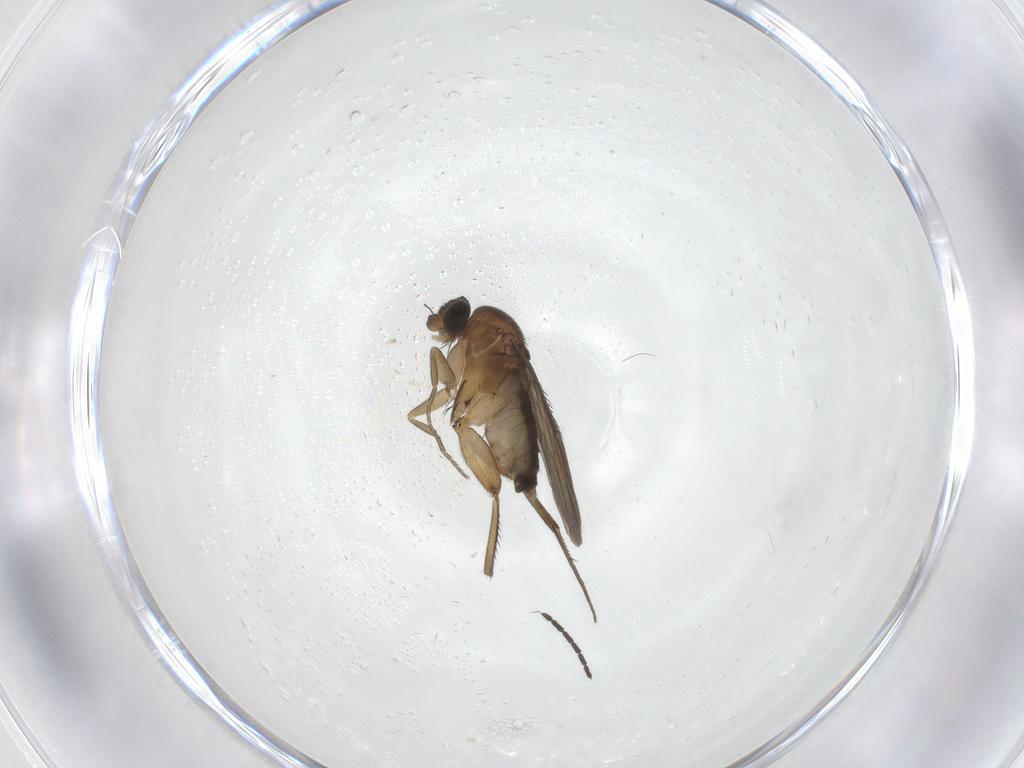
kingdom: Animalia
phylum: Arthropoda
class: Insecta
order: Diptera
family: Phoridae
